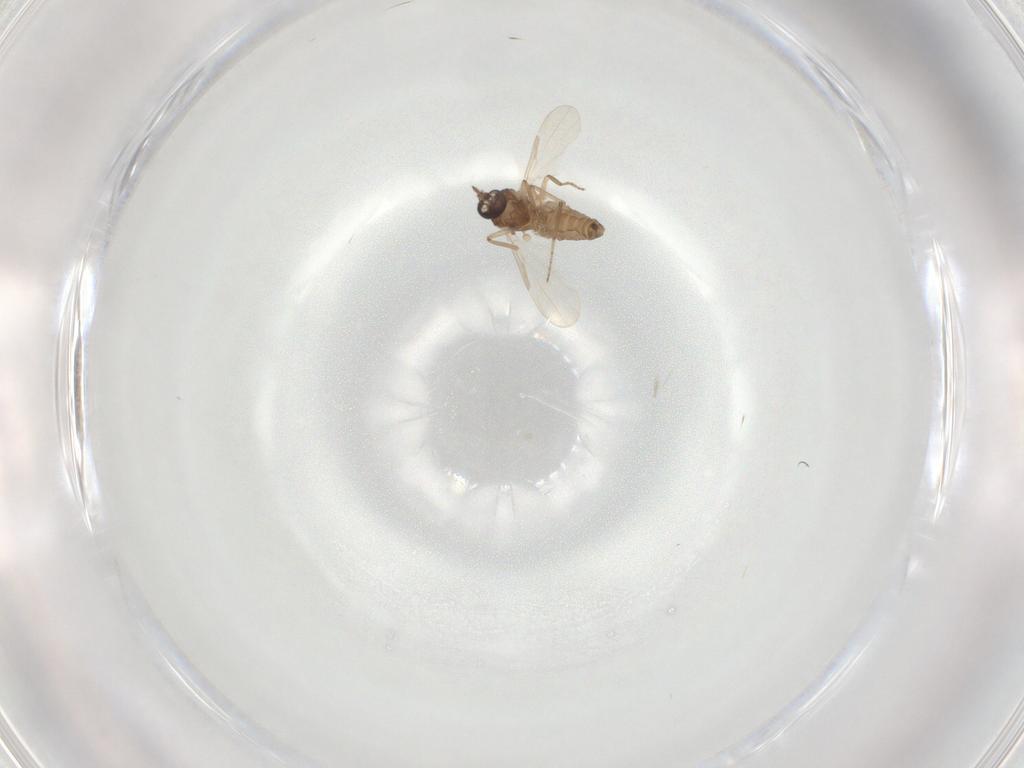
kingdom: Animalia
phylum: Arthropoda
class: Insecta
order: Diptera
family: Ceratopogonidae
